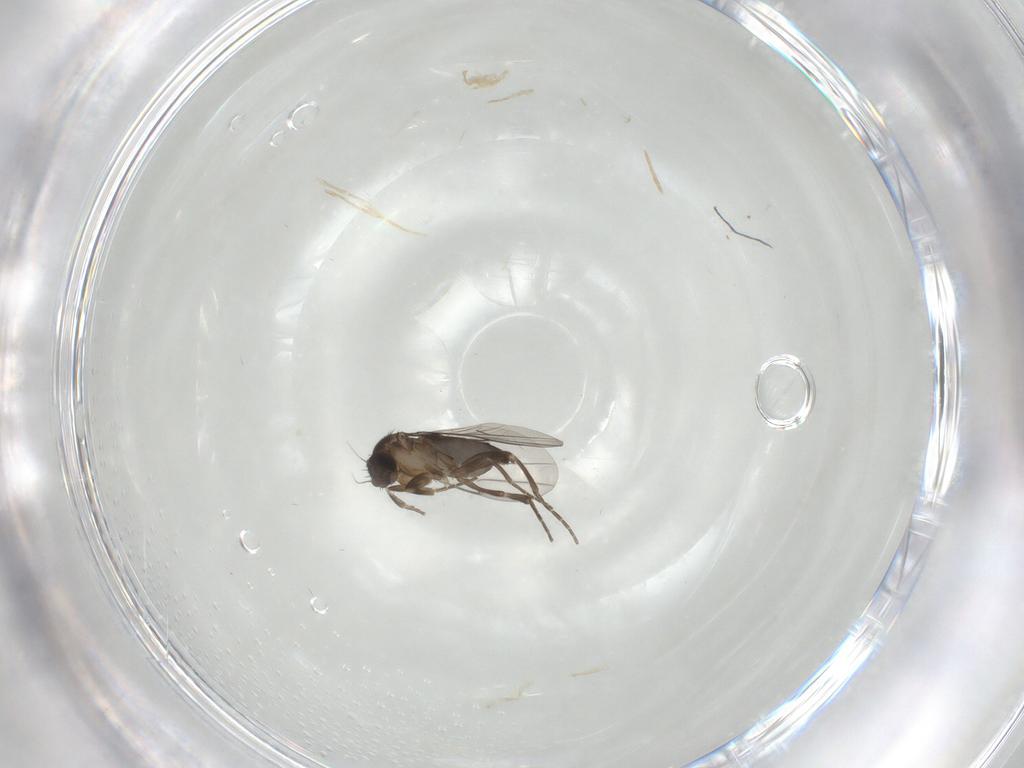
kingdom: Animalia
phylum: Arthropoda
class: Insecta
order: Diptera
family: Phoridae
